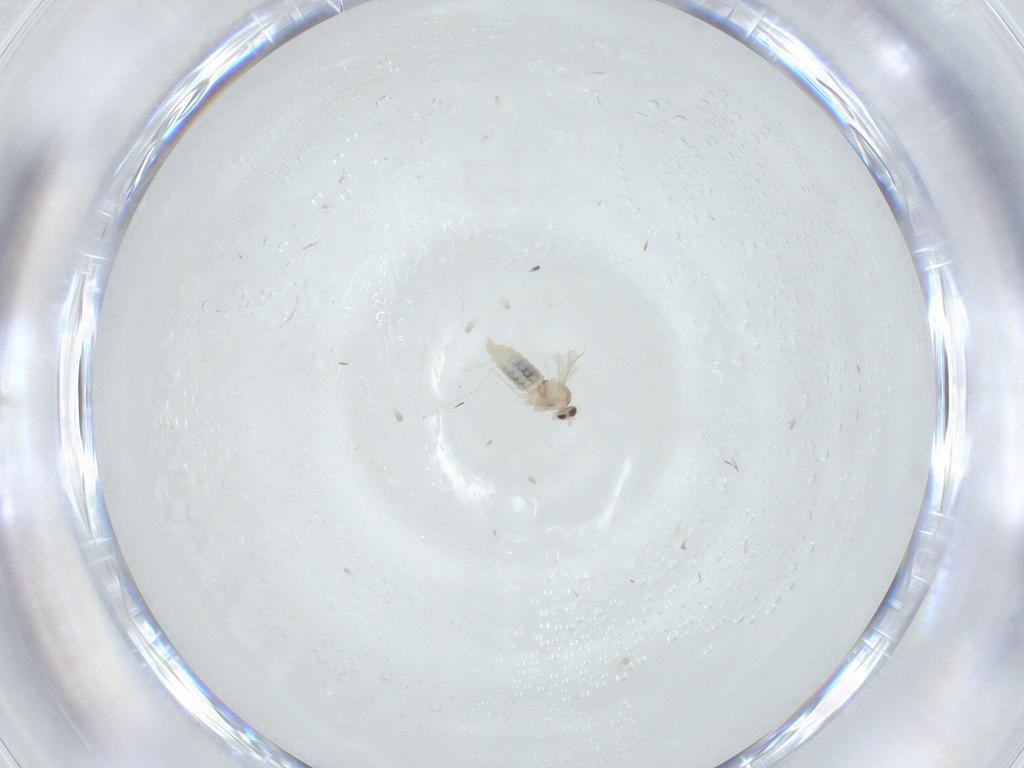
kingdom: Animalia
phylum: Arthropoda
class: Insecta
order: Diptera
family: Cecidomyiidae
